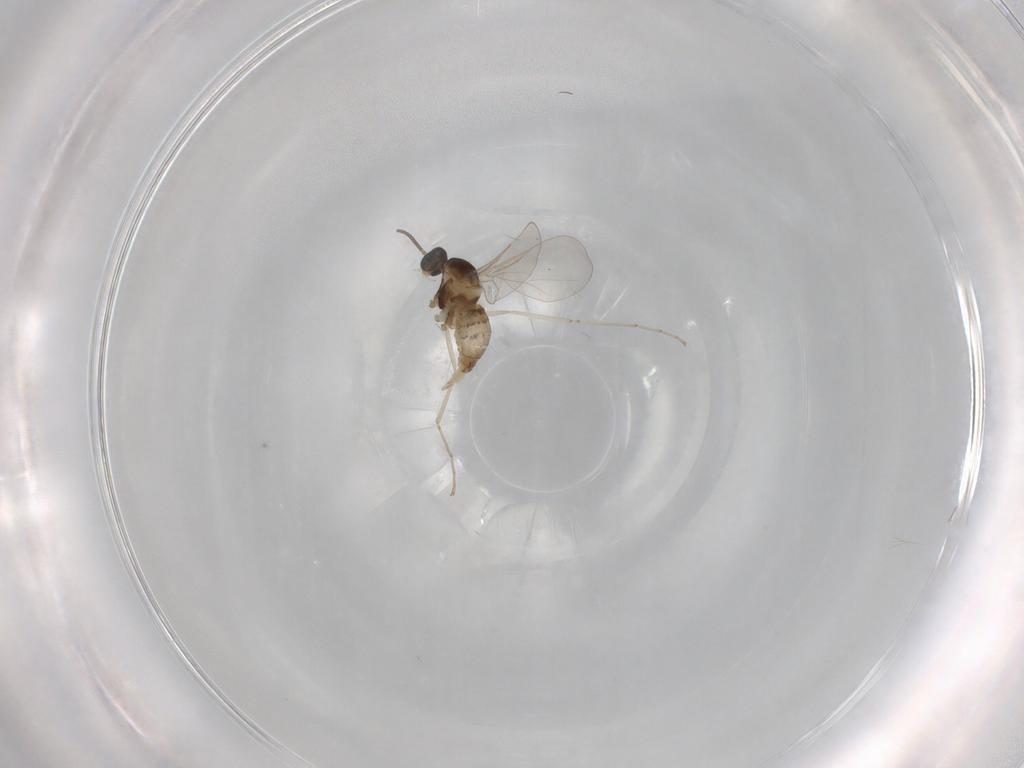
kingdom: Animalia
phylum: Arthropoda
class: Insecta
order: Diptera
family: Cecidomyiidae
